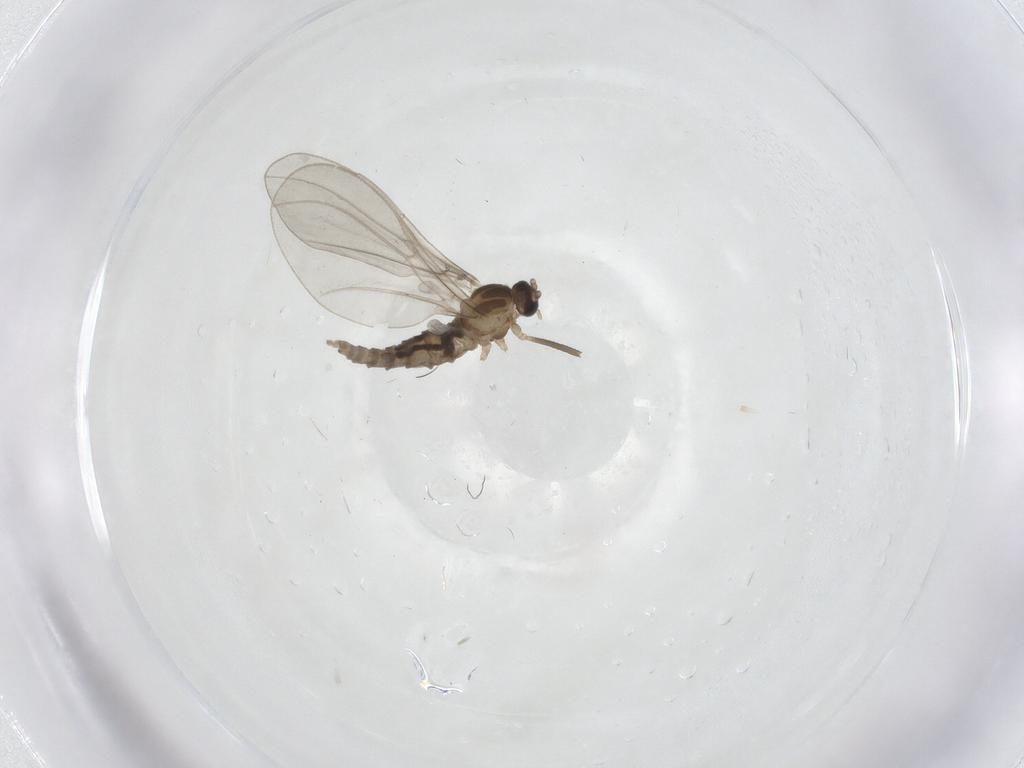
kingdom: Animalia
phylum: Arthropoda
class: Insecta
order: Diptera
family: Cecidomyiidae
